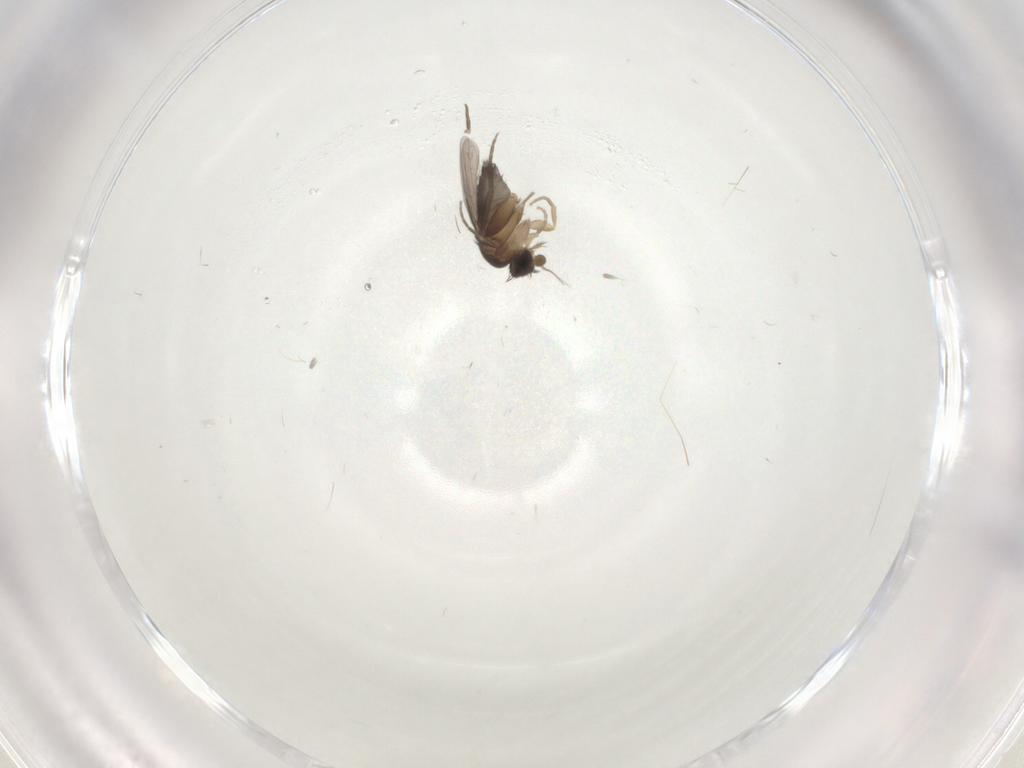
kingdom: Animalia
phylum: Arthropoda
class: Insecta
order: Diptera
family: Phoridae
